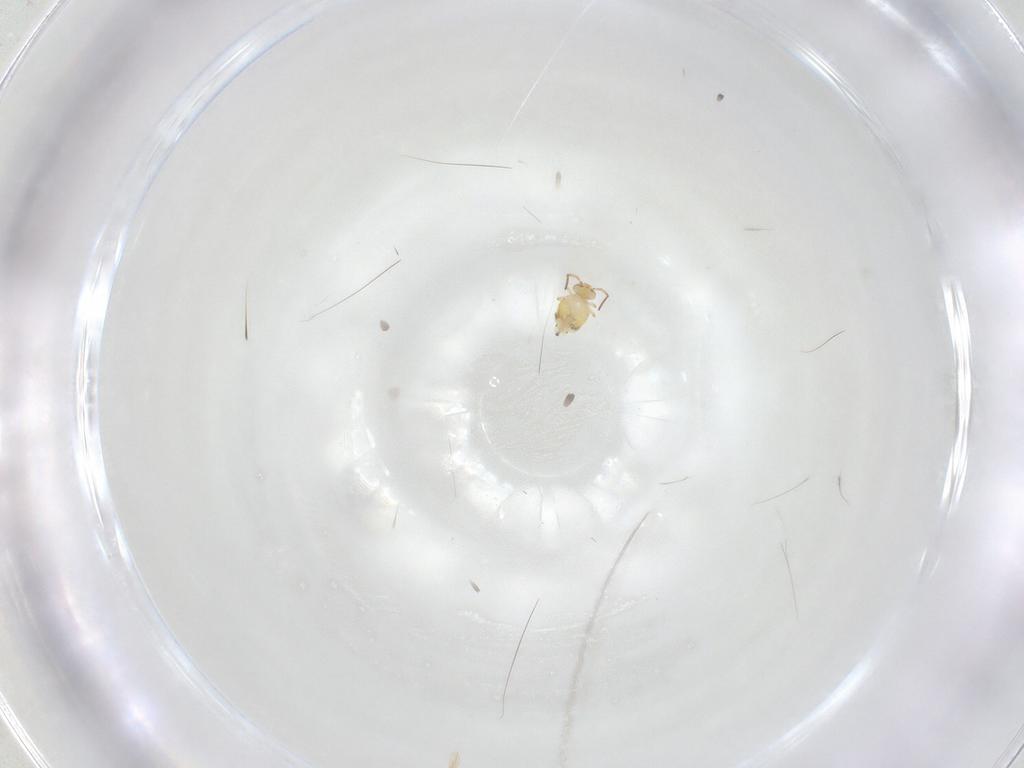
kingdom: Animalia
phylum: Arthropoda
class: Collembola
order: Symphypleona
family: Bourletiellidae
